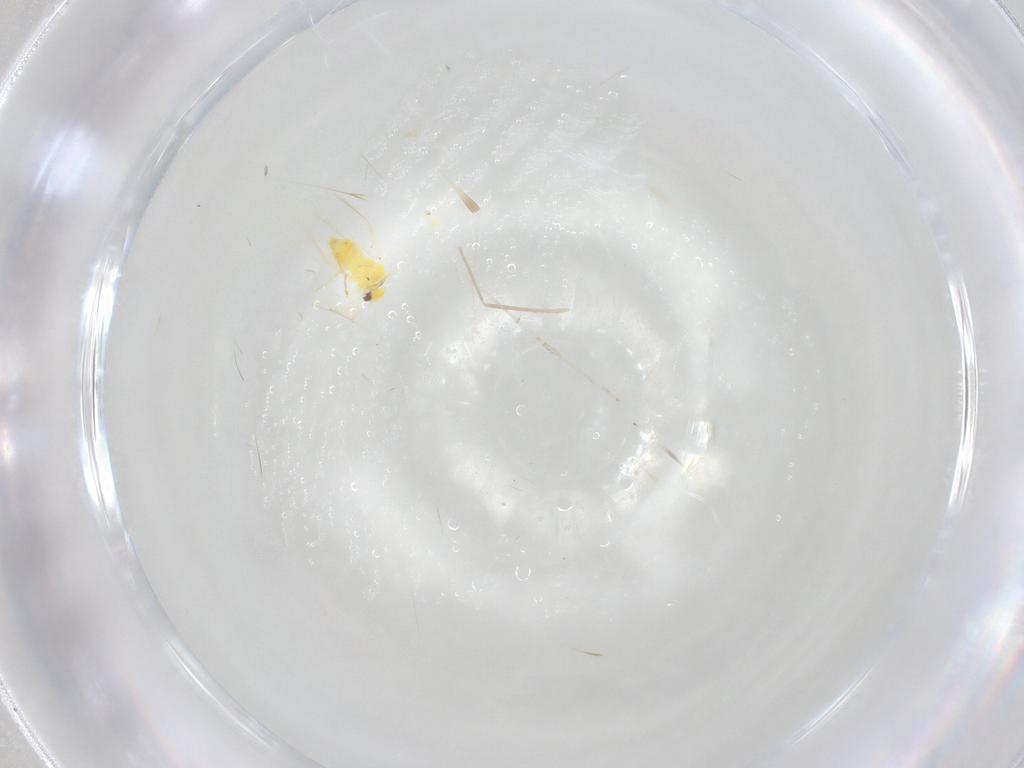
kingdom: Animalia
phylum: Arthropoda
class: Insecta
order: Hemiptera
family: Aleyrodidae
